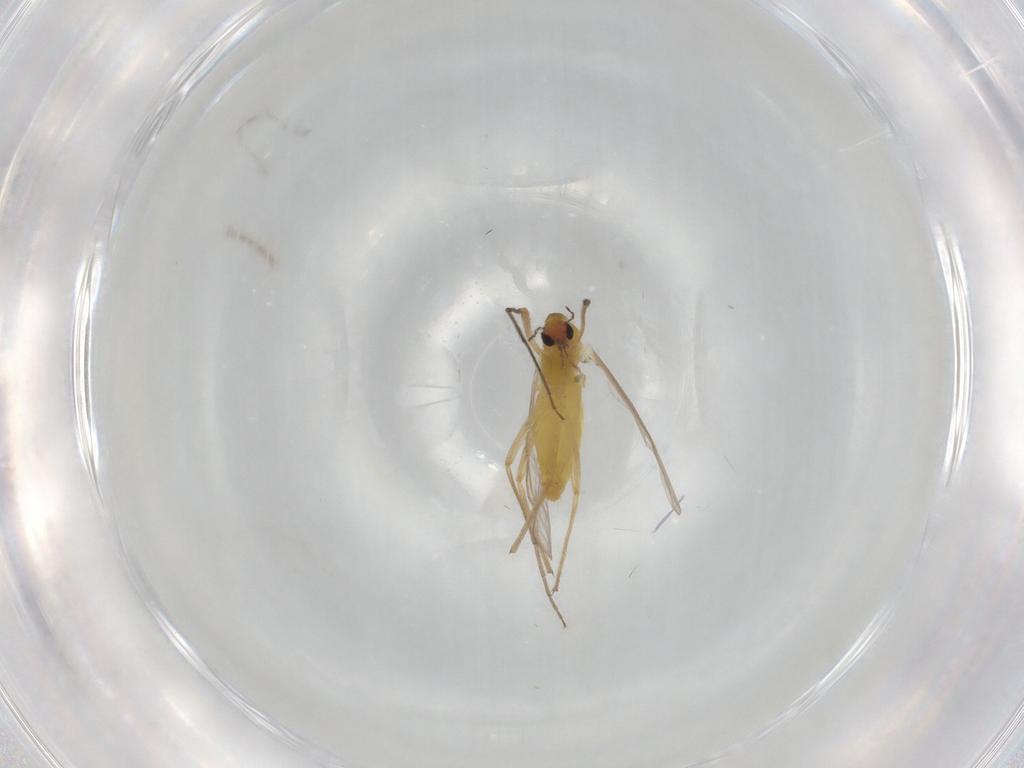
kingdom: Animalia
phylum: Arthropoda
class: Insecta
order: Diptera
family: Chironomidae
